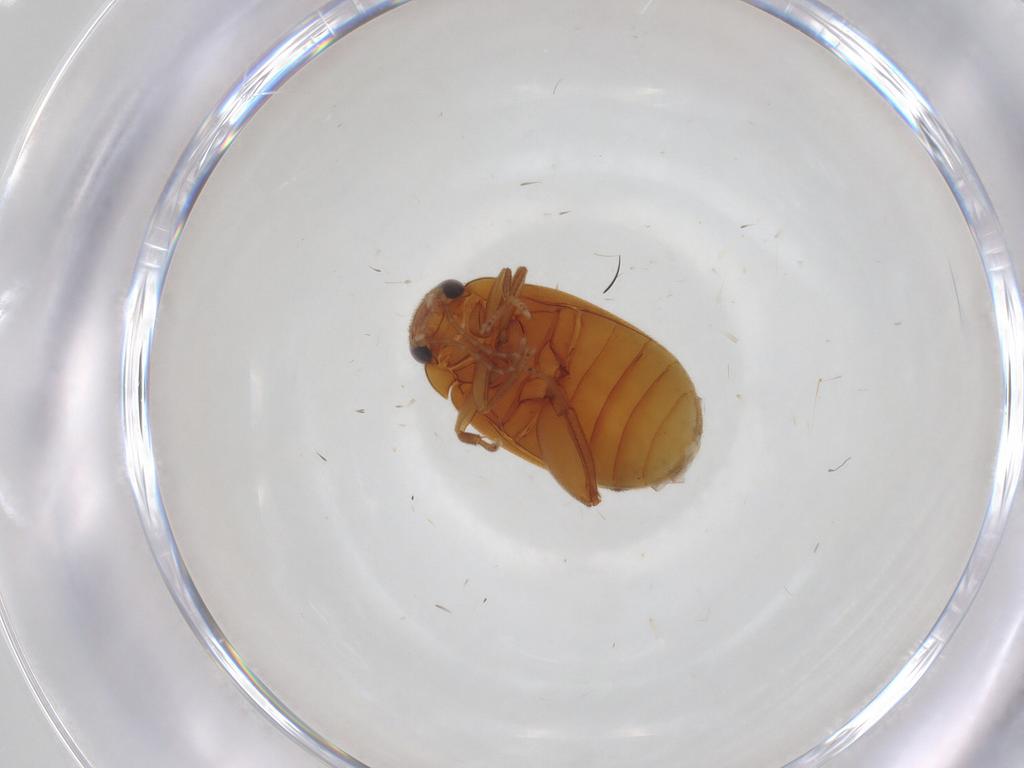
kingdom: Animalia
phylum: Arthropoda
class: Insecta
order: Coleoptera
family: Scirtidae
